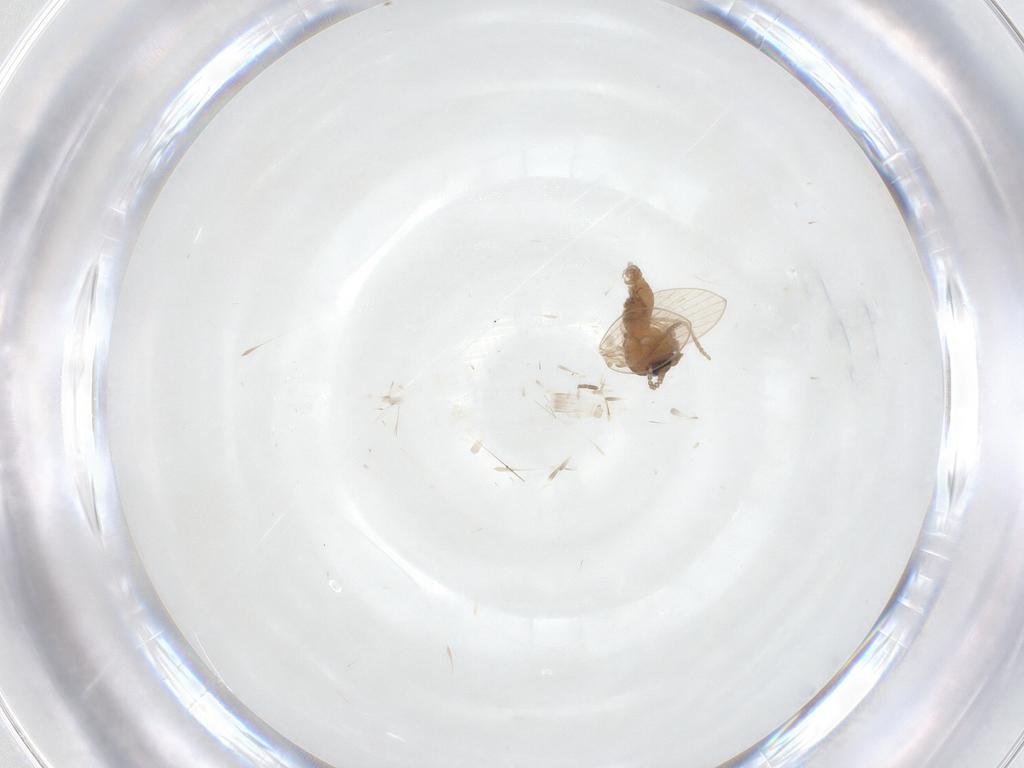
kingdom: Animalia
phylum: Arthropoda
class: Insecta
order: Diptera
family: Psychodidae
